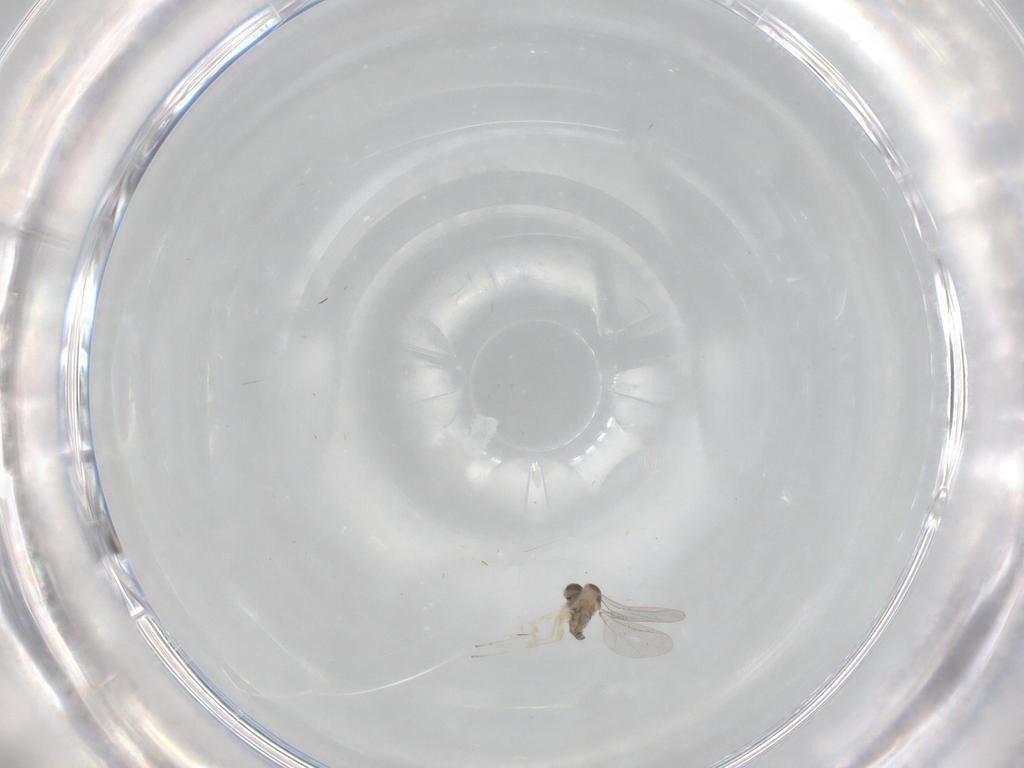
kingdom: Animalia
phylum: Arthropoda
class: Insecta
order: Diptera
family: Cecidomyiidae
